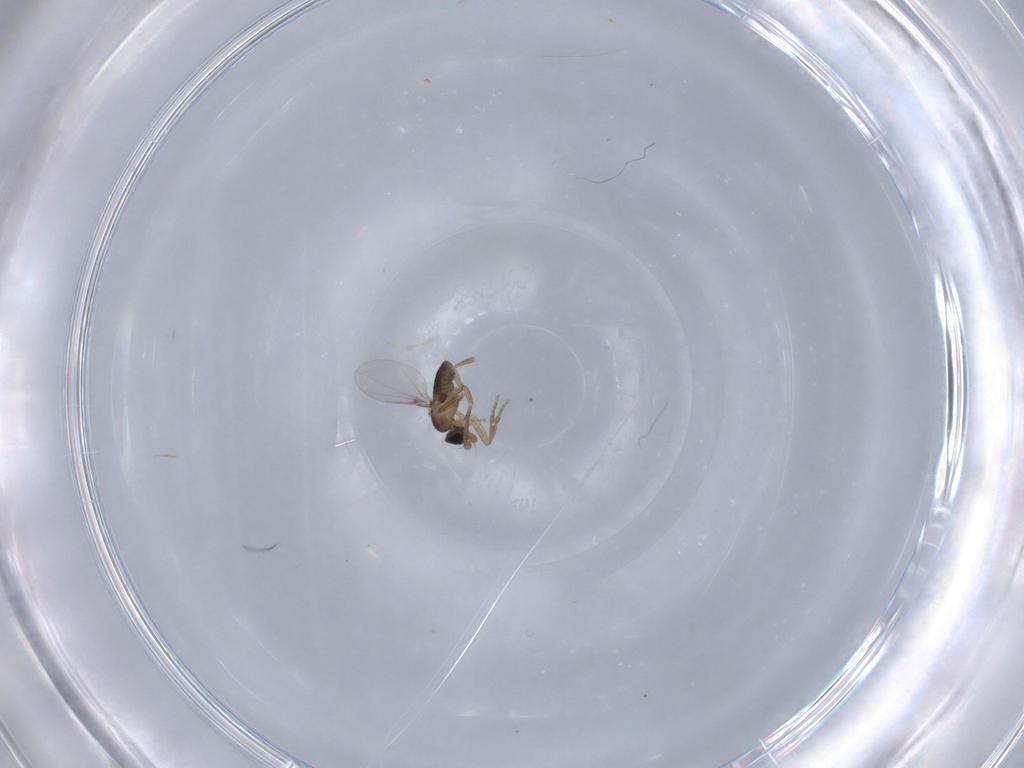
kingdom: Animalia
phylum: Arthropoda
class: Insecta
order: Diptera
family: Phoridae
